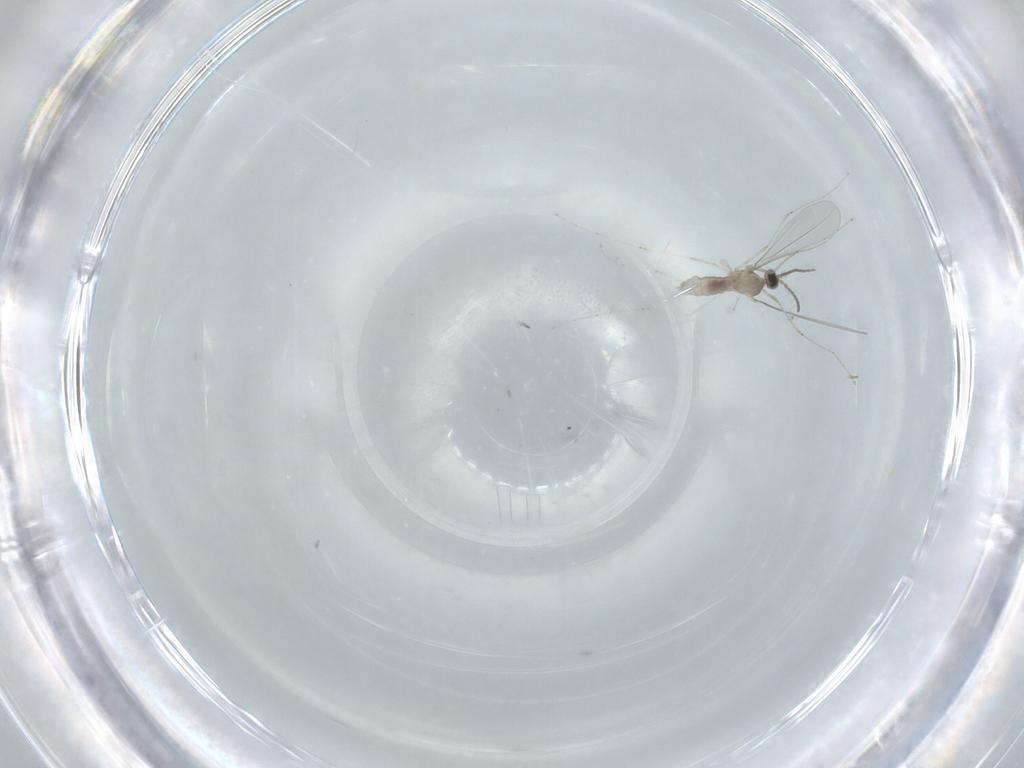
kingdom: Animalia
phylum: Arthropoda
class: Insecta
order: Diptera
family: Cecidomyiidae
